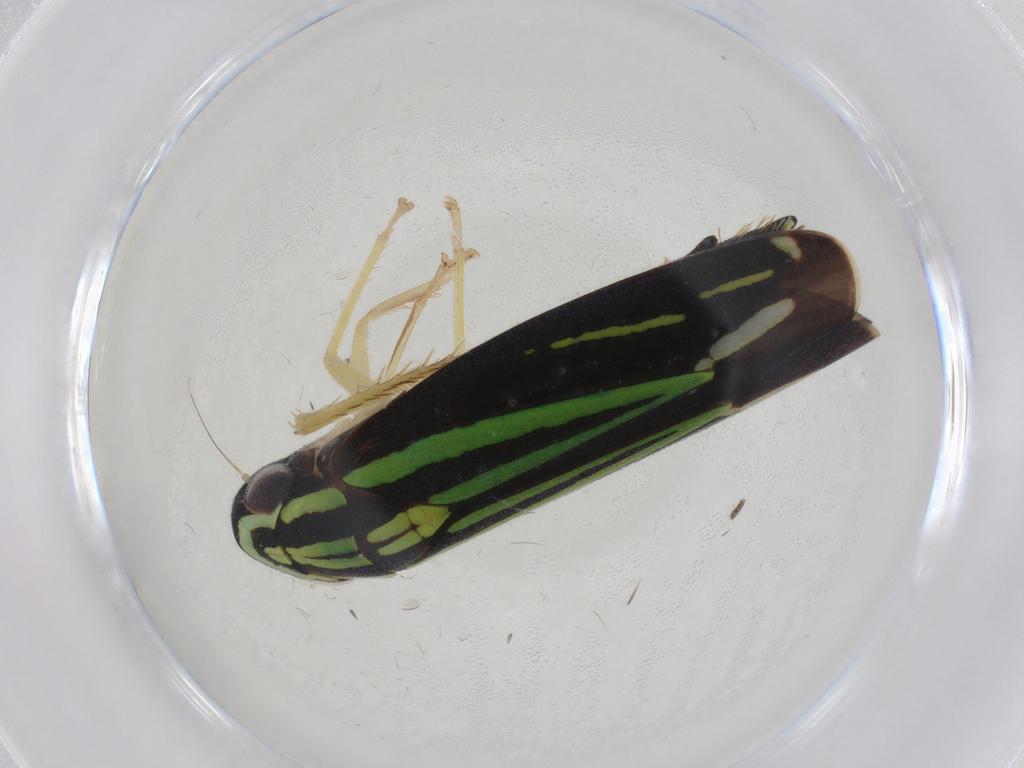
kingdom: Animalia
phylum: Arthropoda
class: Insecta
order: Hemiptera
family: Cicadellidae
